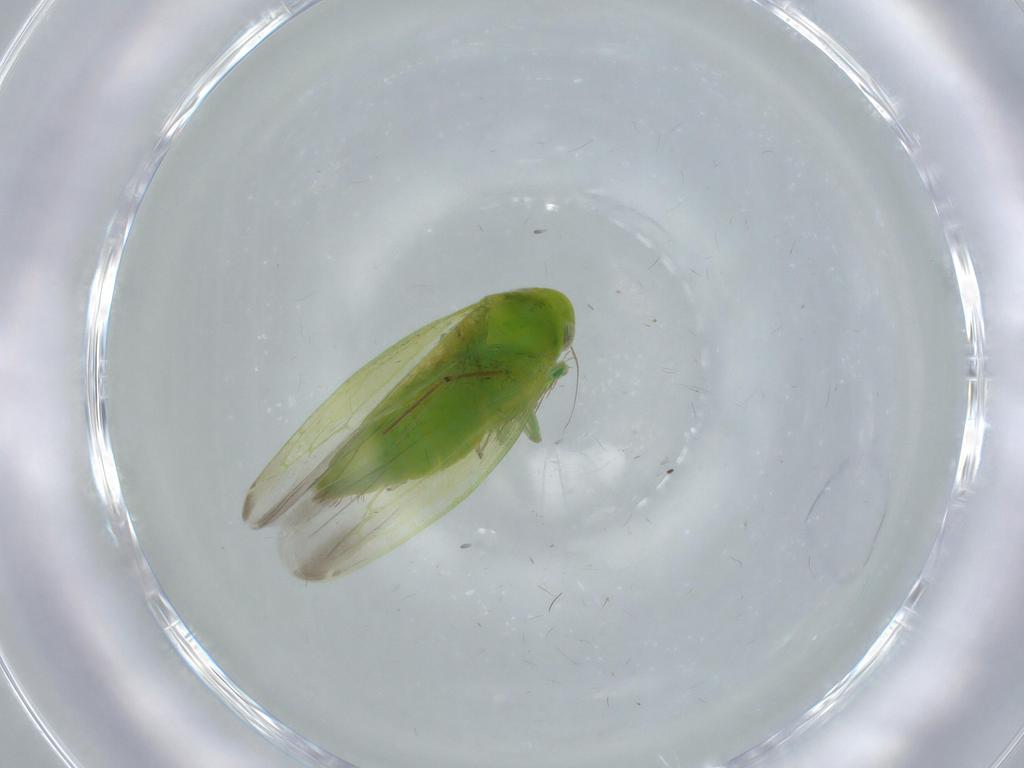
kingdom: Animalia
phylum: Arthropoda
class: Insecta
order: Hemiptera
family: Cicadellidae
